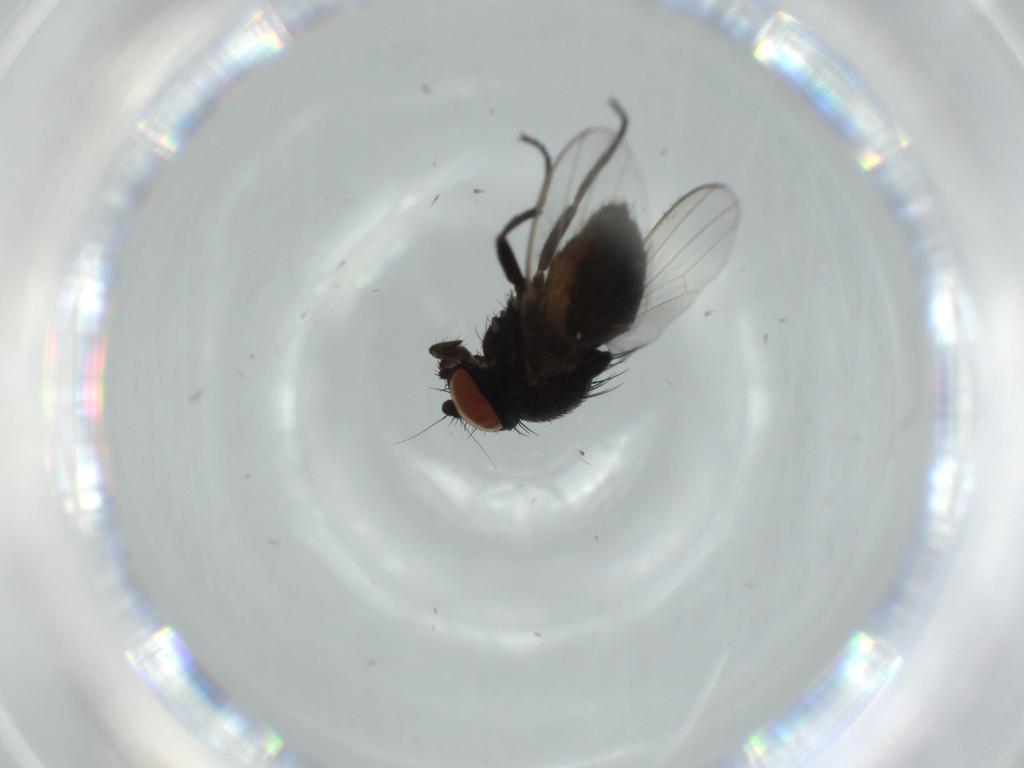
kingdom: Animalia
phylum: Arthropoda
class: Insecta
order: Diptera
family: Milichiidae
